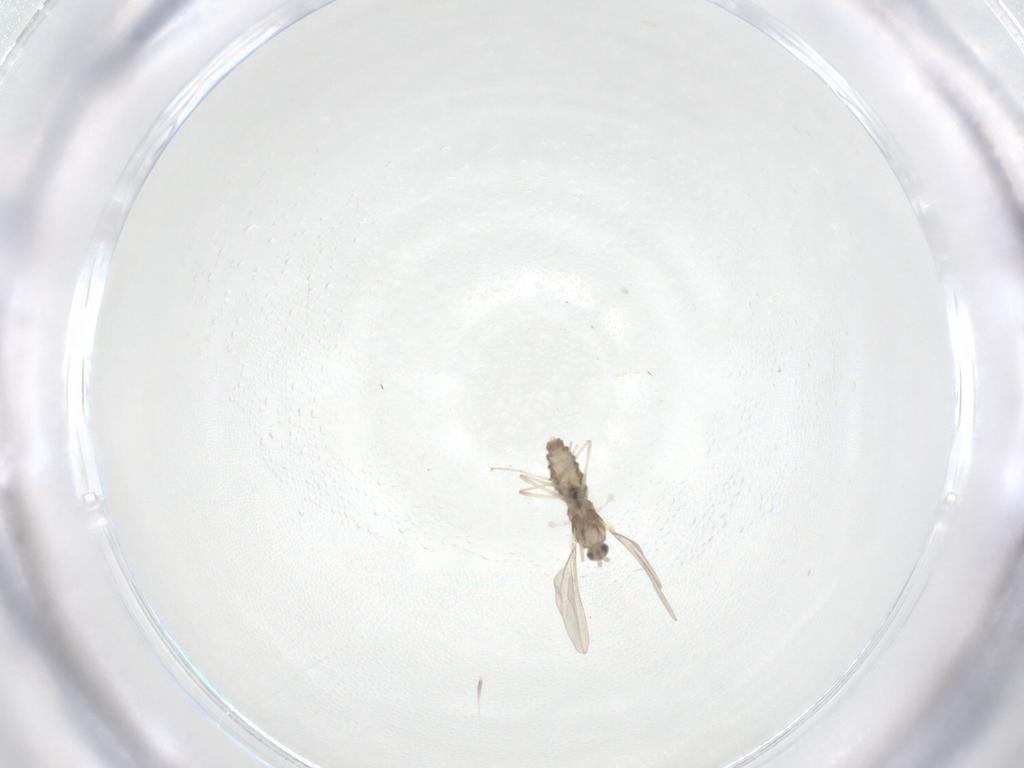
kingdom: Animalia
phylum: Arthropoda
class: Insecta
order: Diptera
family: Cecidomyiidae
